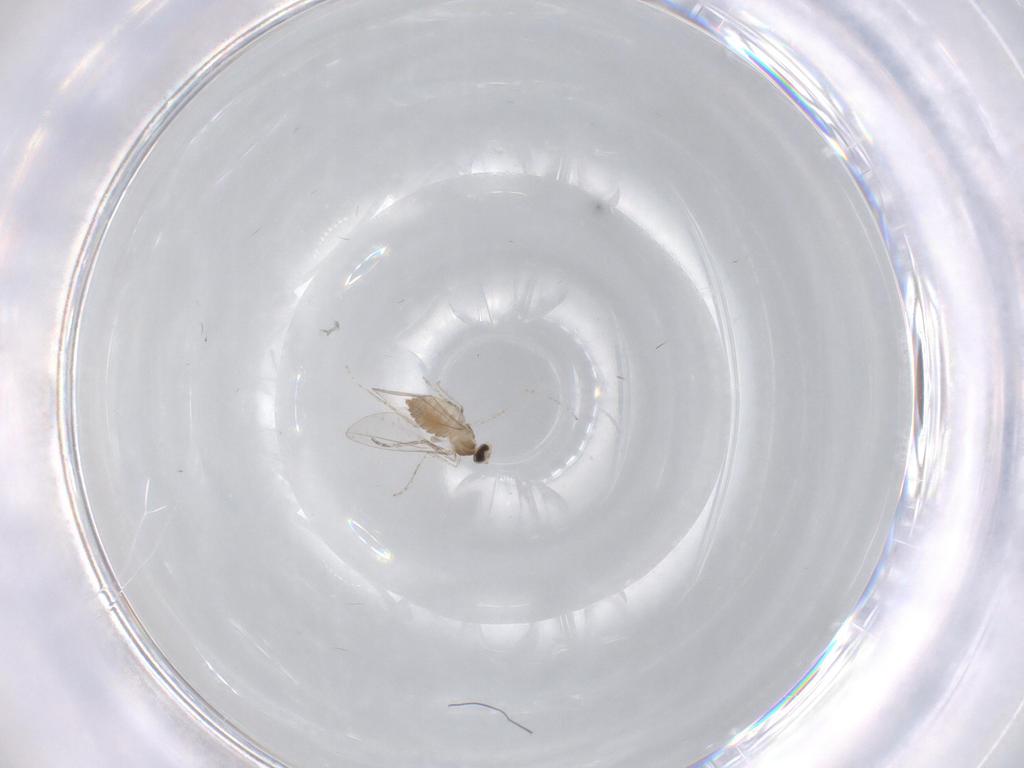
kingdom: Animalia
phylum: Arthropoda
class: Insecta
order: Diptera
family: Cecidomyiidae
